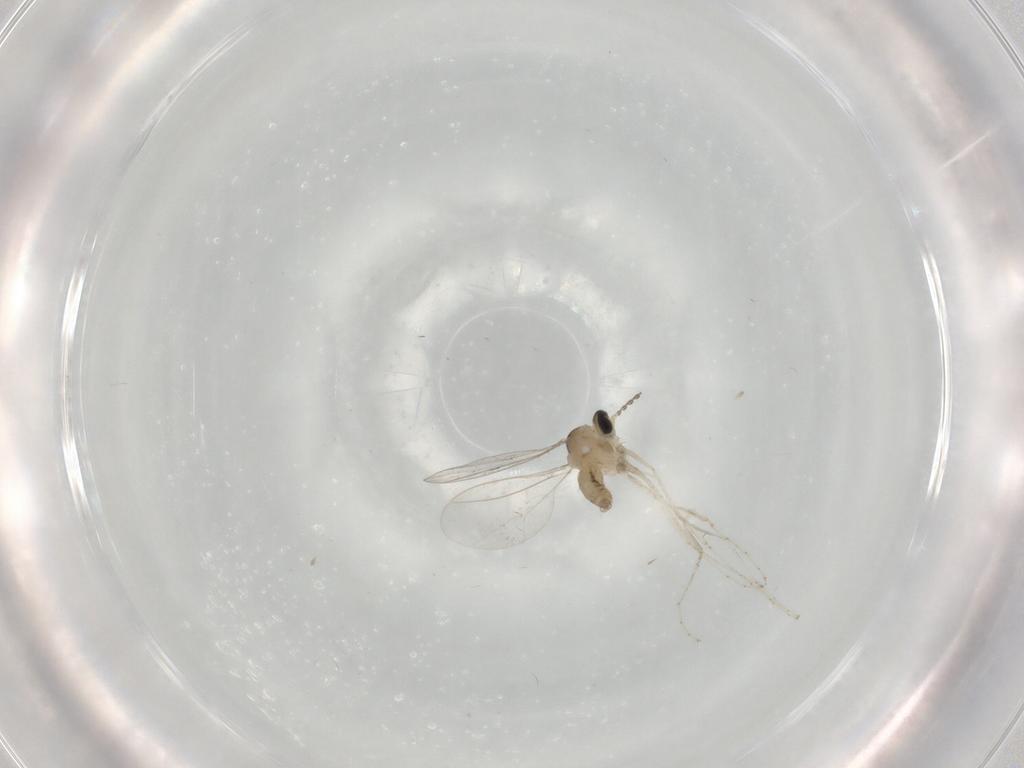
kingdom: Animalia
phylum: Arthropoda
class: Insecta
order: Diptera
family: Cecidomyiidae
